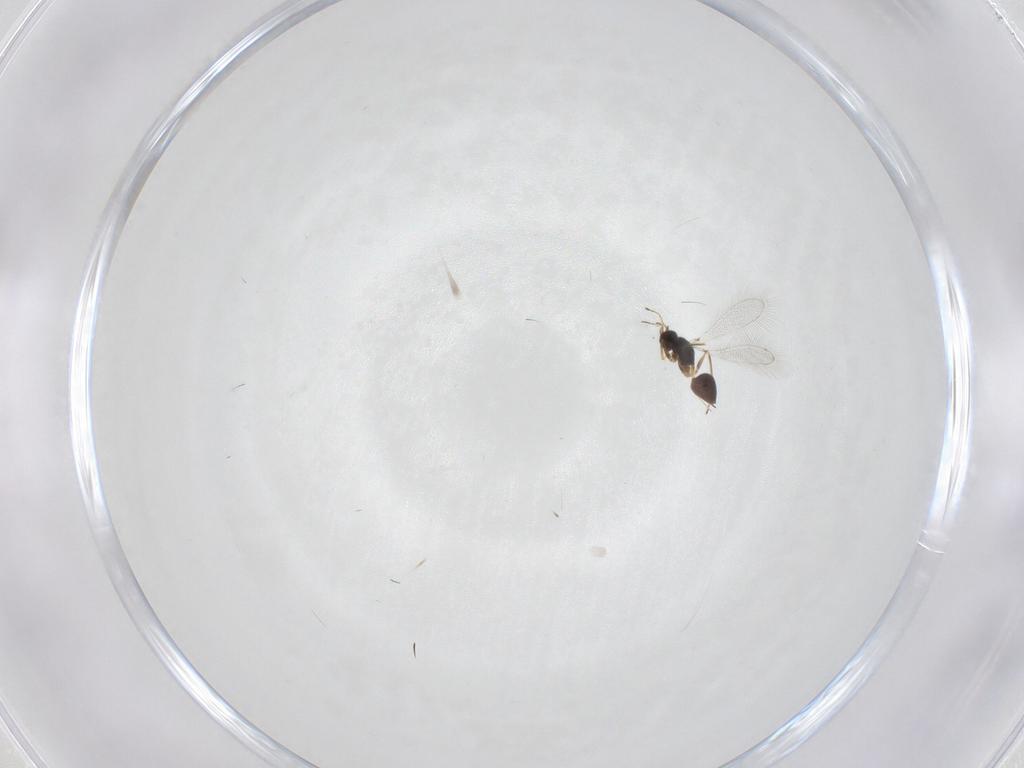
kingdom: Animalia
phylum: Arthropoda
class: Insecta
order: Hymenoptera
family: Mymaridae
